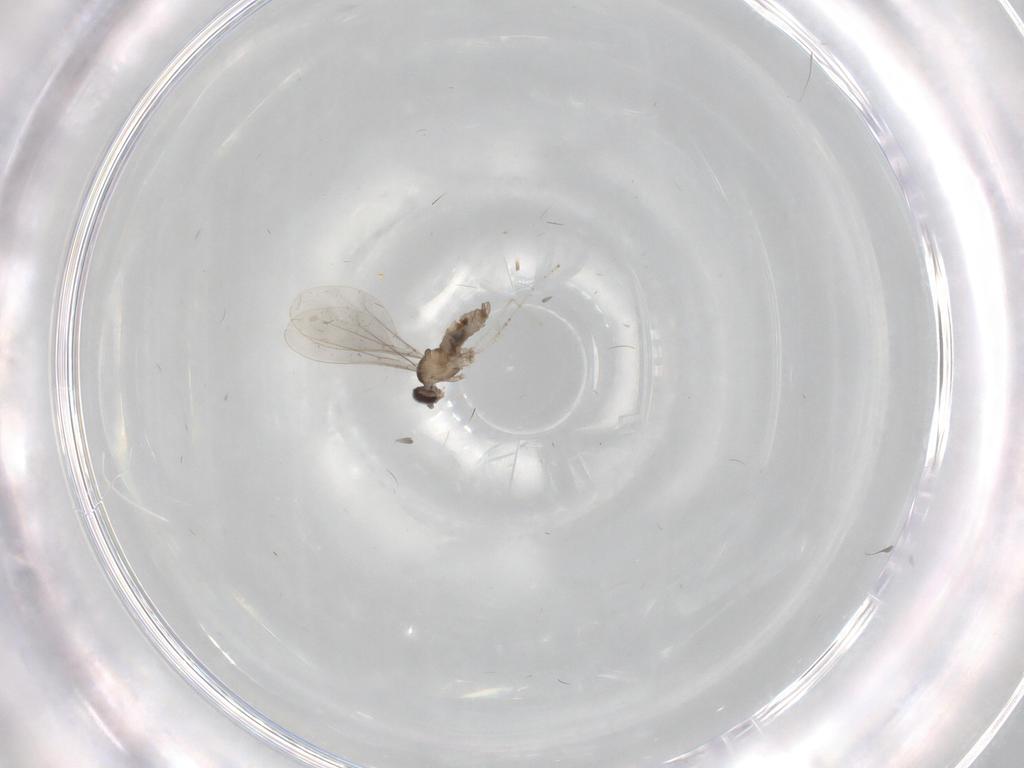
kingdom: Animalia
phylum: Arthropoda
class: Insecta
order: Diptera
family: Cecidomyiidae
